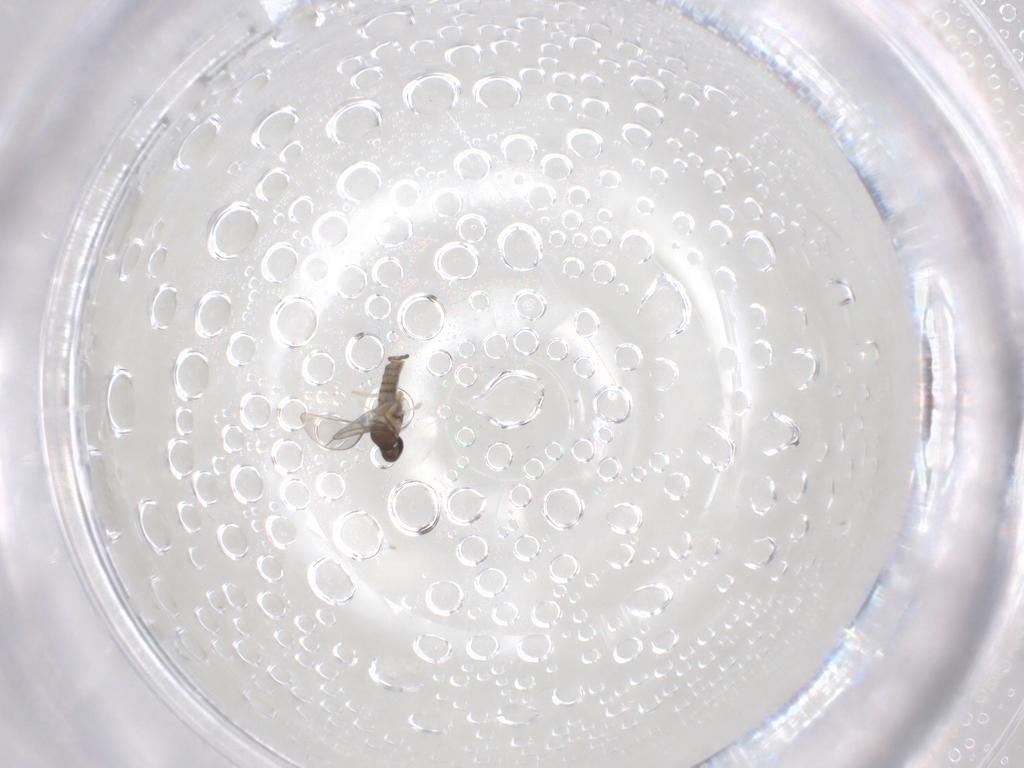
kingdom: Animalia
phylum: Arthropoda
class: Insecta
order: Diptera
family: Cecidomyiidae
